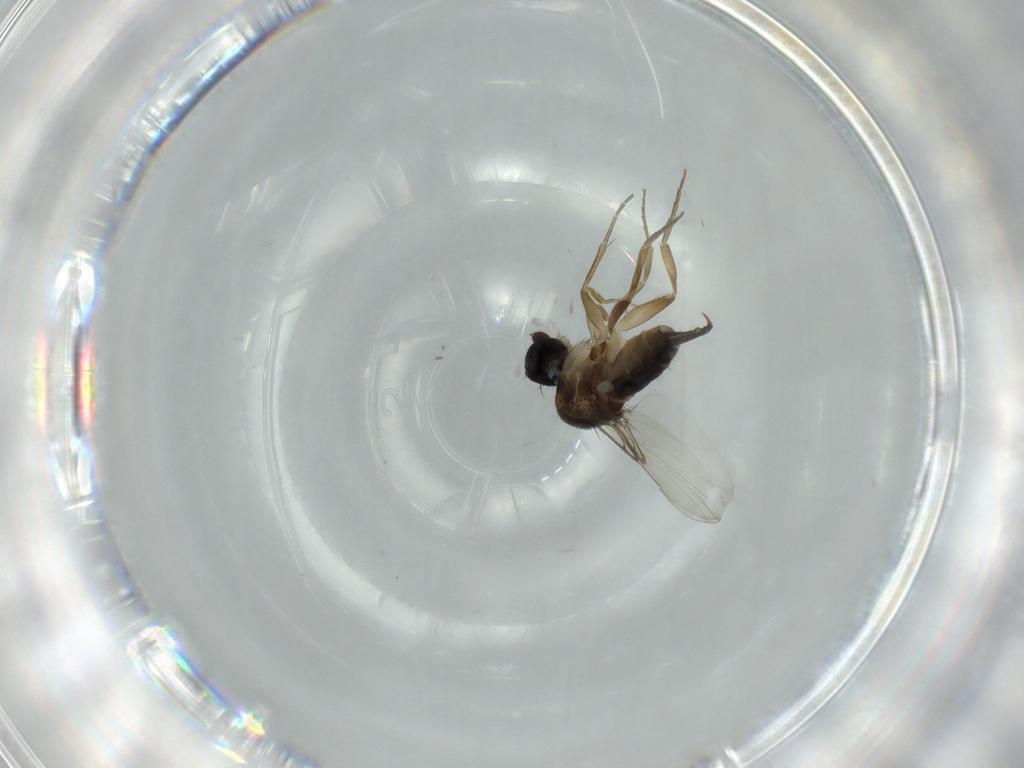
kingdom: Animalia
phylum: Arthropoda
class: Insecta
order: Diptera
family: Phoridae
